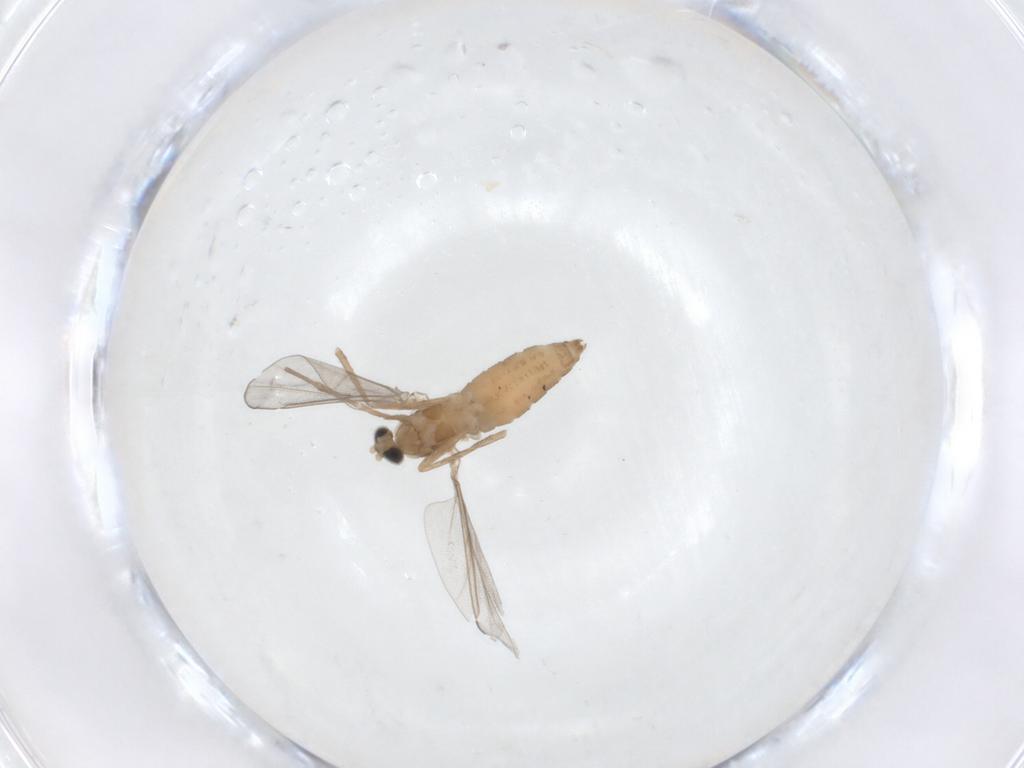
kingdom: Animalia
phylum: Arthropoda
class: Insecta
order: Diptera
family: Cecidomyiidae
